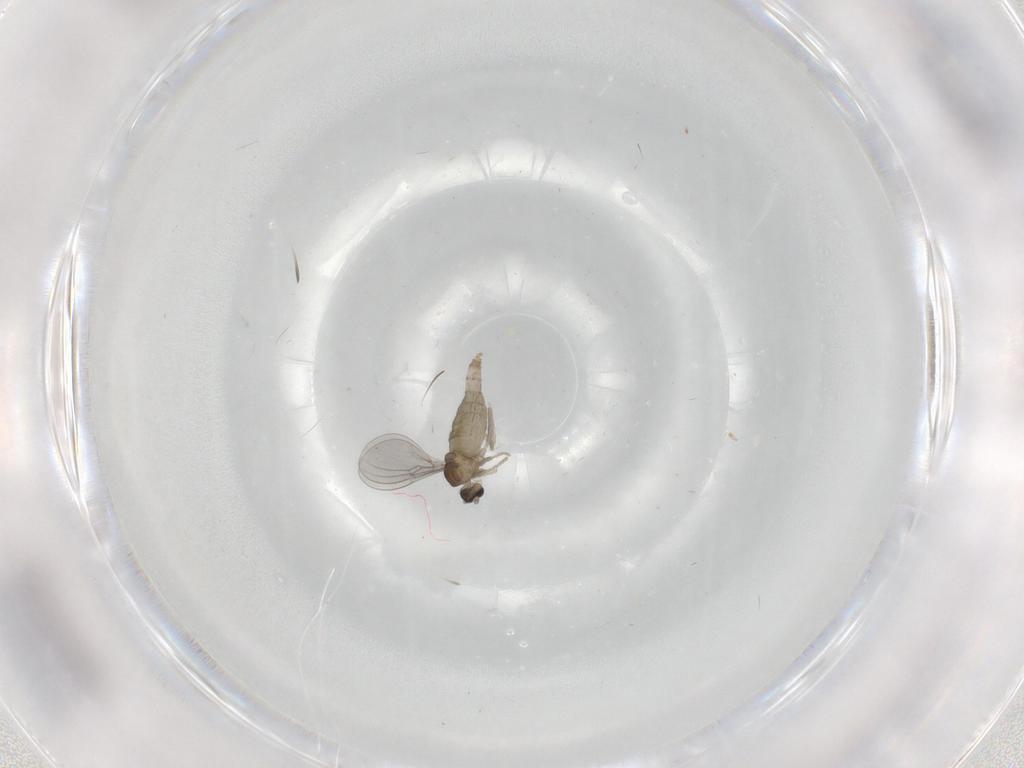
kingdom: Animalia
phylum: Arthropoda
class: Insecta
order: Diptera
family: Cecidomyiidae
